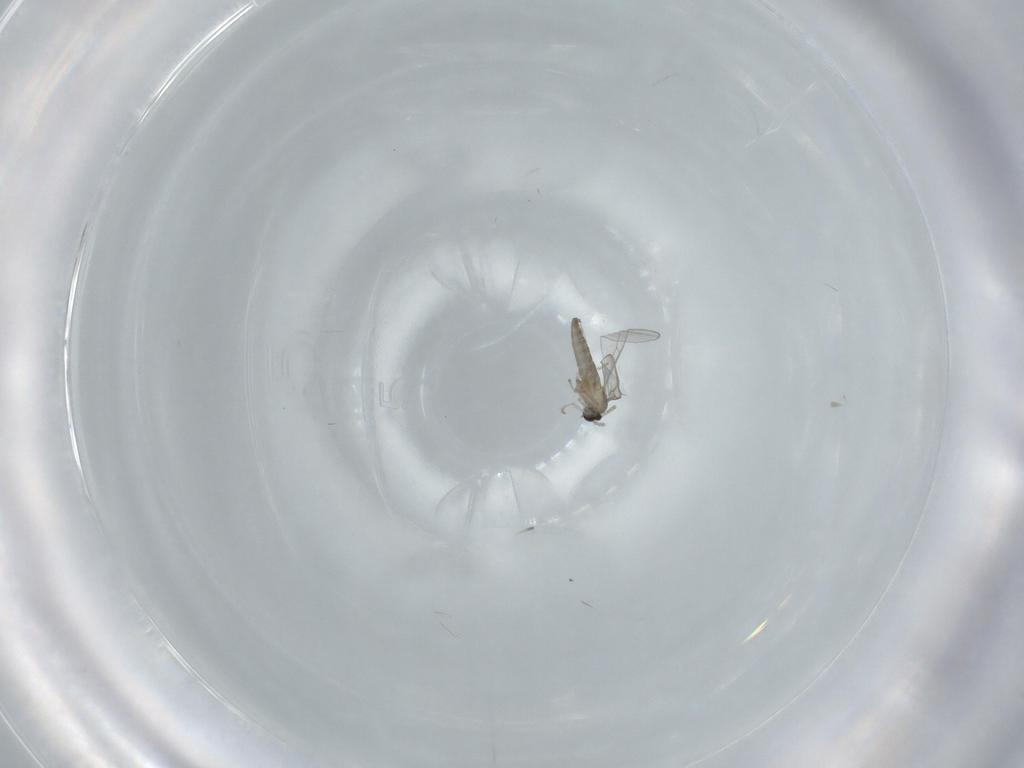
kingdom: Animalia
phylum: Arthropoda
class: Insecta
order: Diptera
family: Cecidomyiidae
